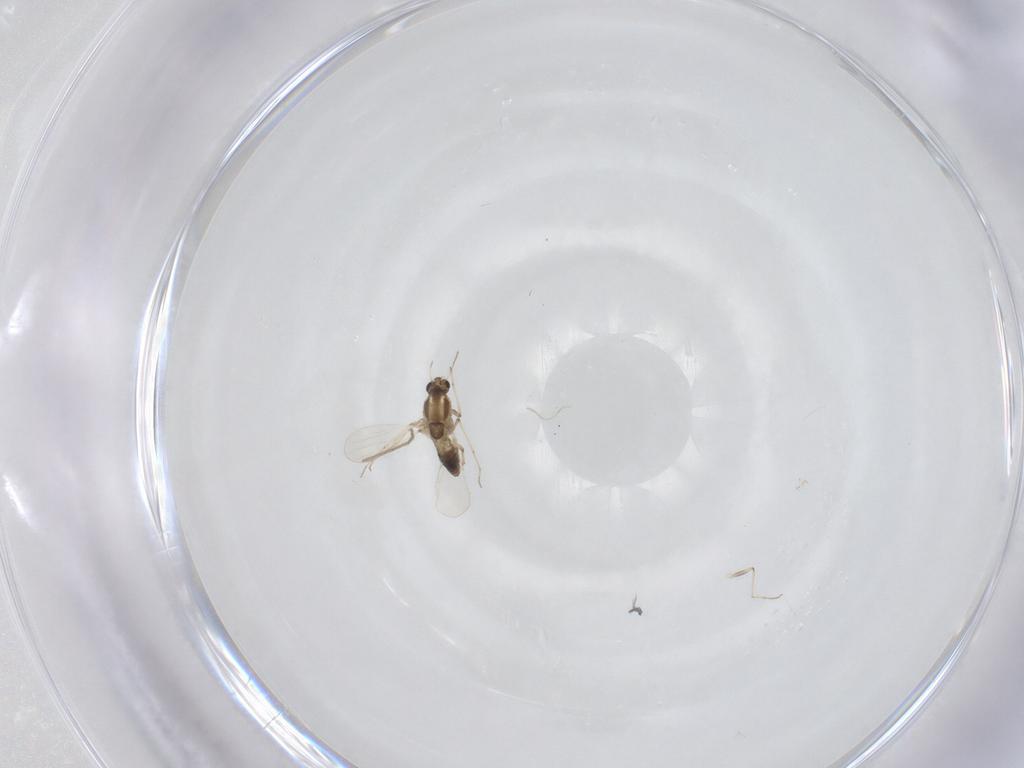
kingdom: Animalia
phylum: Arthropoda
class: Insecta
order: Diptera
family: Chironomidae
